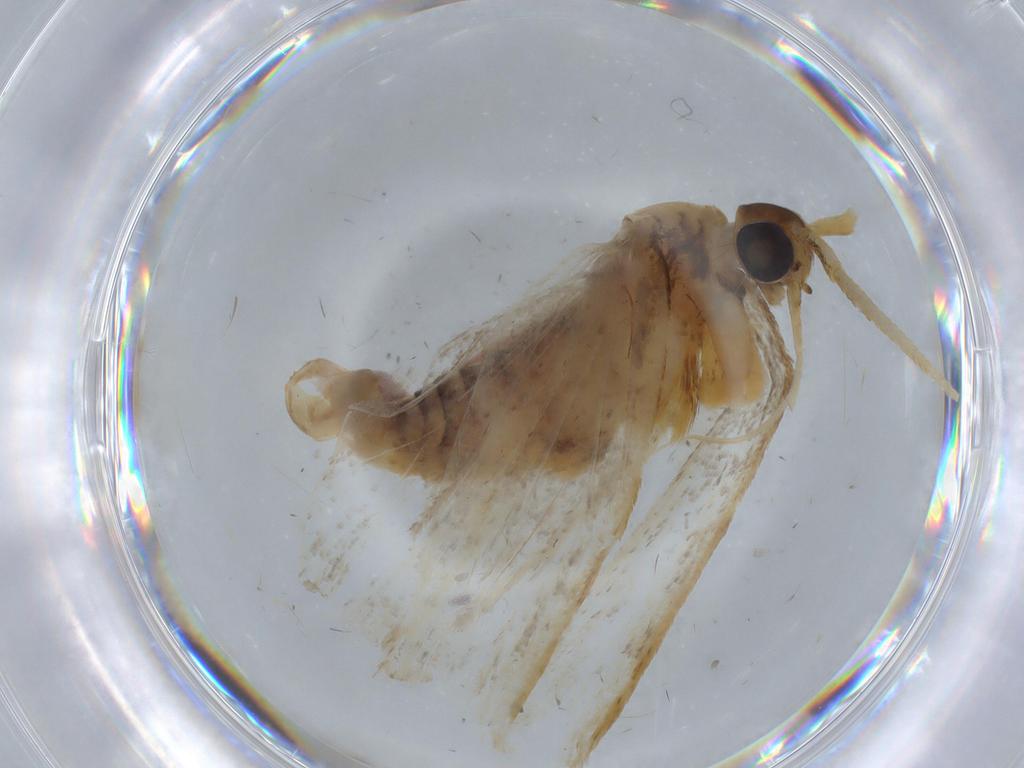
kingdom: Animalia
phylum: Arthropoda
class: Insecta
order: Lepidoptera
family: Lecithoceridae
